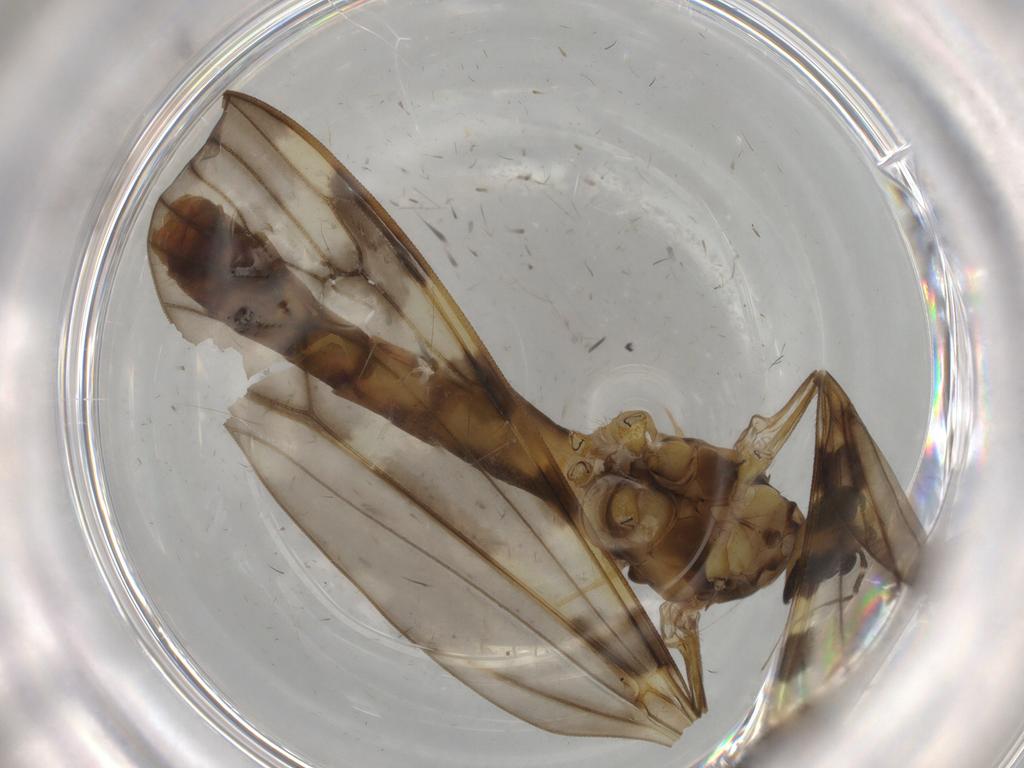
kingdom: Animalia
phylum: Arthropoda
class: Insecta
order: Diptera
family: Psychodidae
